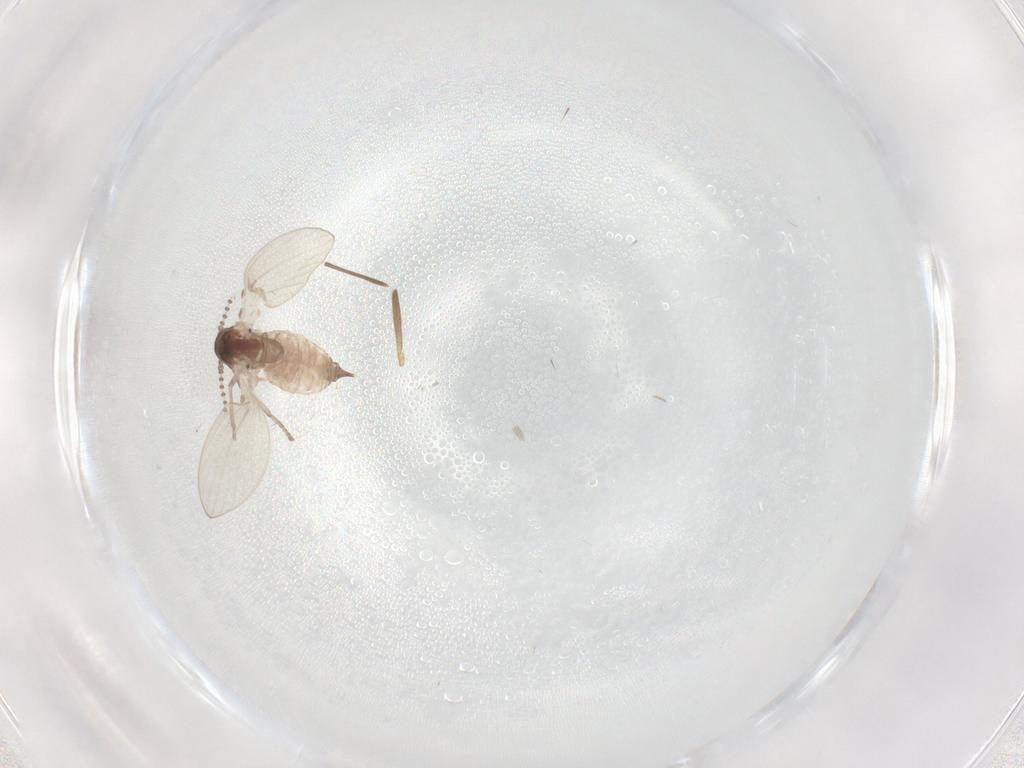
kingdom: Animalia
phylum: Arthropoda
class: Insecta
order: Diptera
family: Chironomidae
